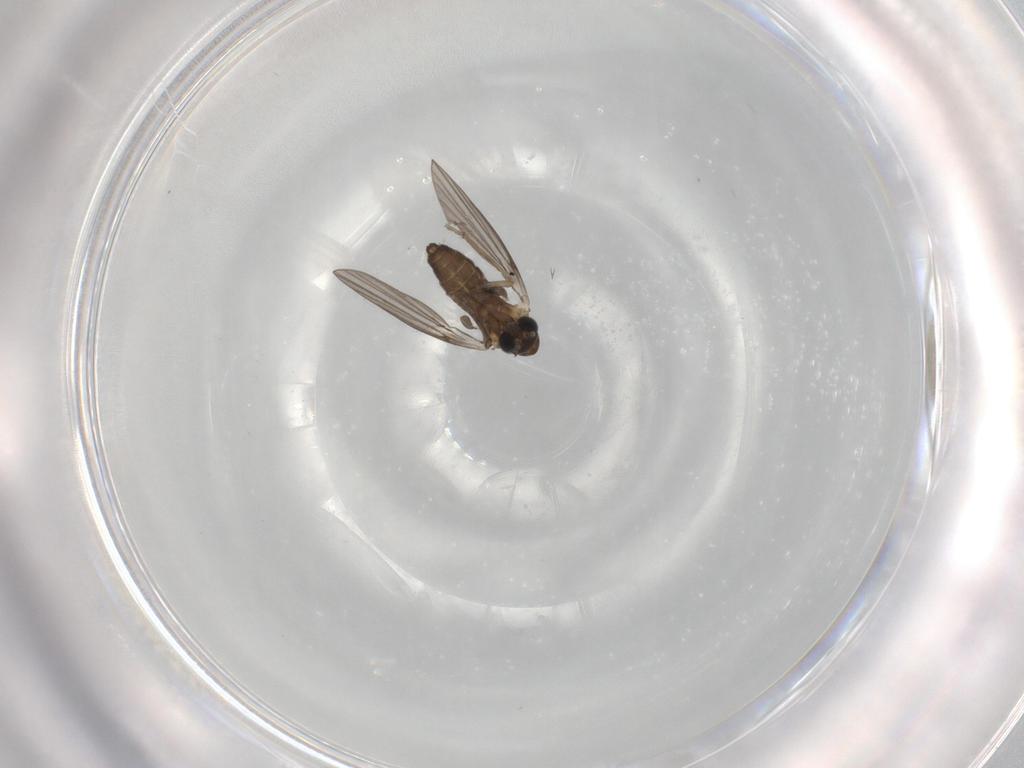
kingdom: Animalia
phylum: Arthropoda
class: Insecta
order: Diptera
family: Psychodidae
